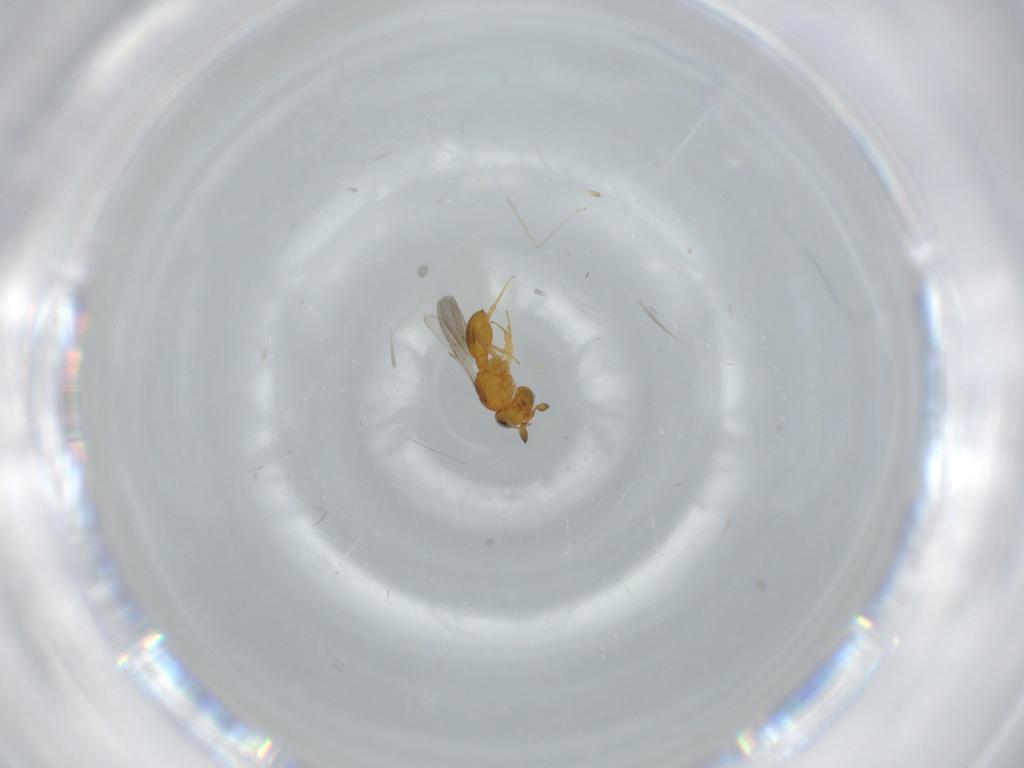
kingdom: Animalia
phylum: Arthropoda
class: Insecta
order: Hymenoptera
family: Scelionidae
